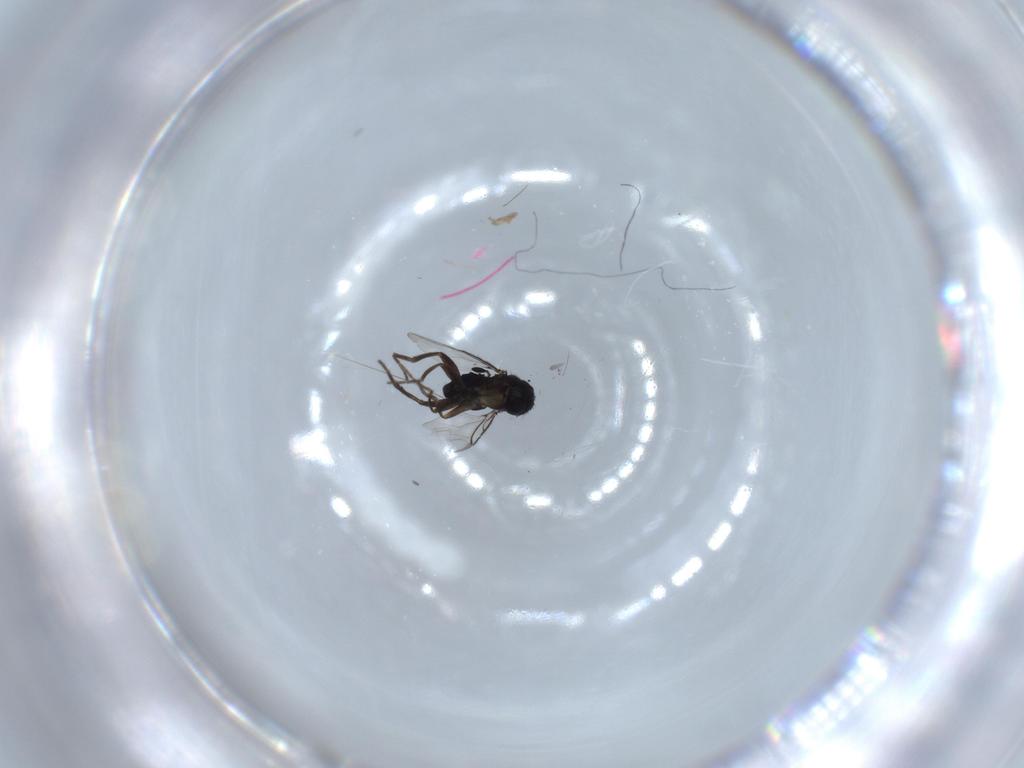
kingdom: Animalia
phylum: Arthropoda
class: Insecta
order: Diptera
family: Phoridae
